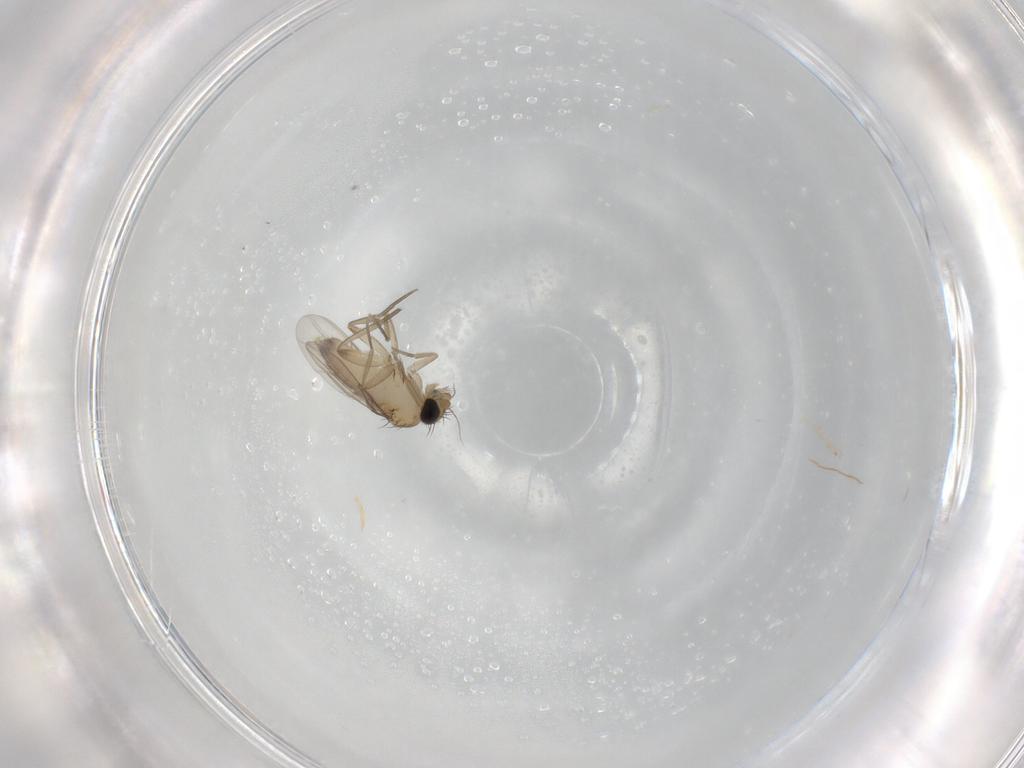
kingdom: Animalia
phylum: Arthropoda
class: Insecta
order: Diptera
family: Phoridae
